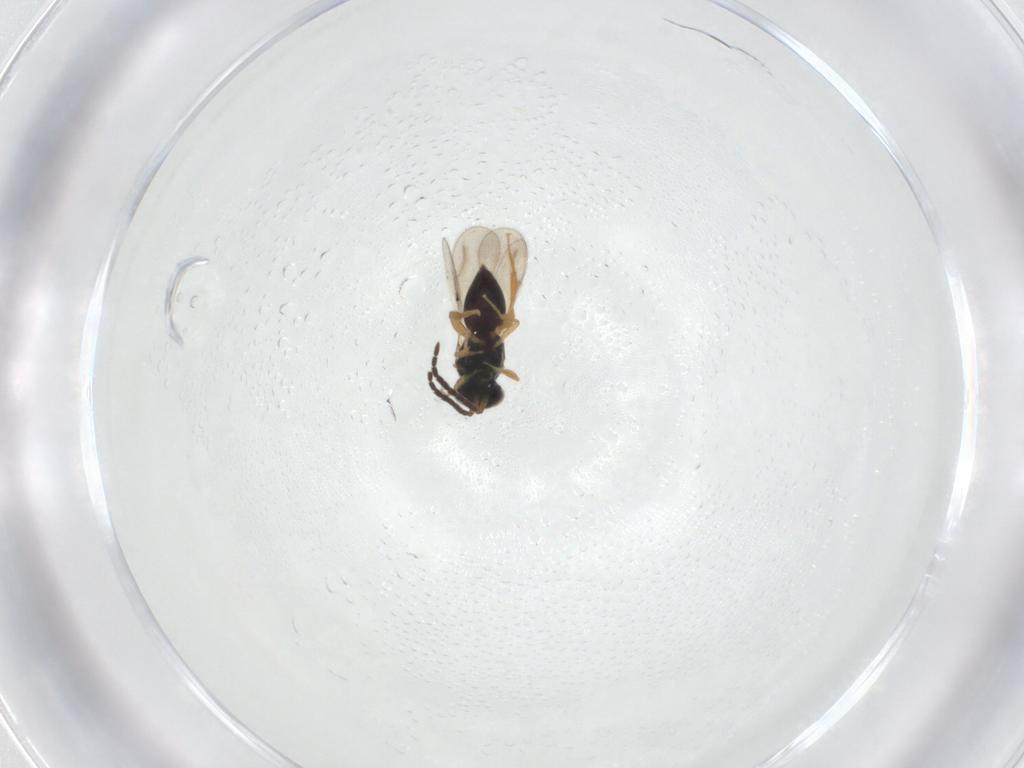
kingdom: Animalia
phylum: Arthropoda
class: Insecta
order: Hymenoptera
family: Ceraphronidae
